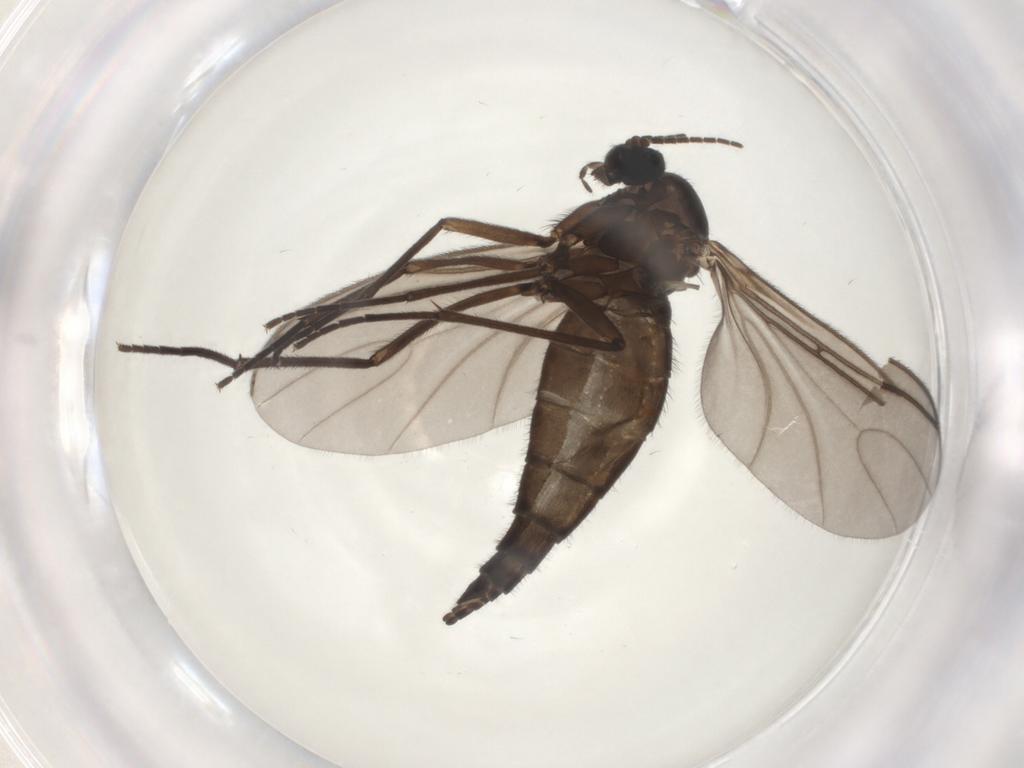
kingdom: Animalia
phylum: Arthropoda
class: Insecta
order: Diptera
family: Sciaridae
